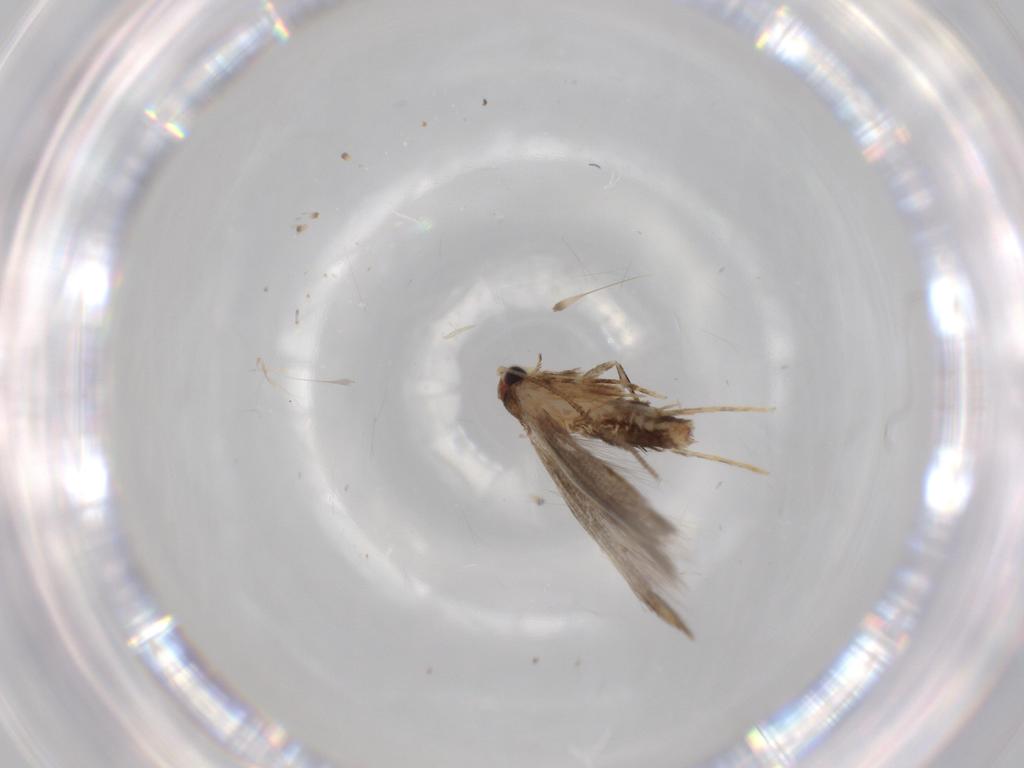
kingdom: Animalia
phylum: Arthropoda
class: Insecta
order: Lepidoptera
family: Tineidae
